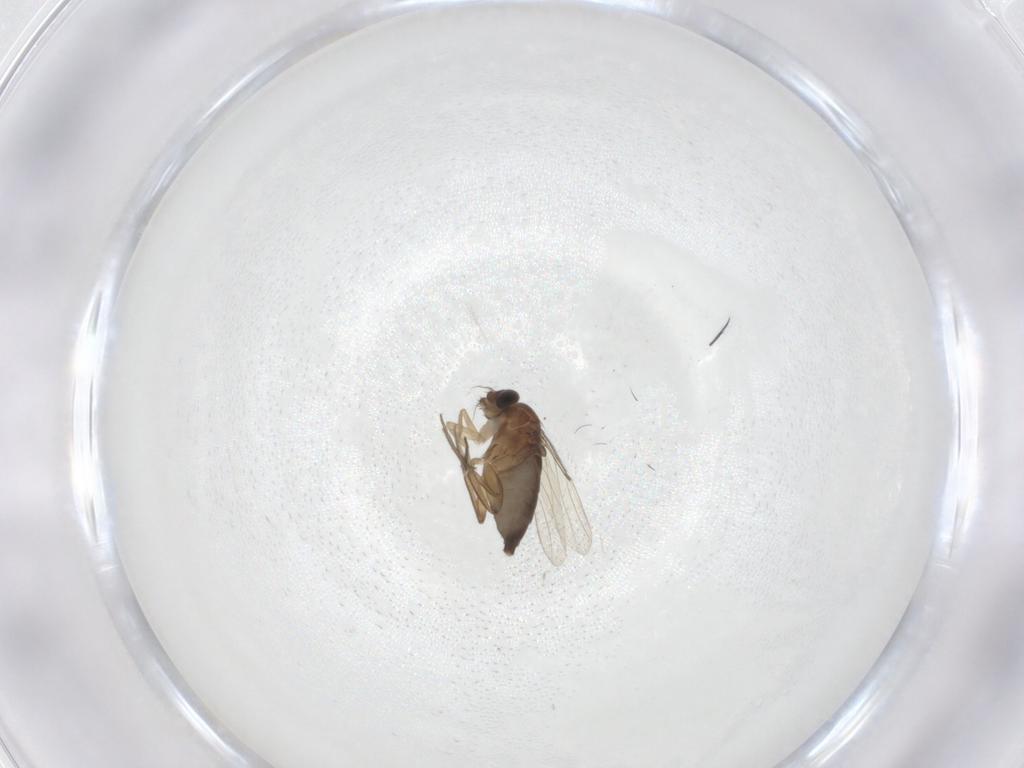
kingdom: Animalia
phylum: Arthropoda
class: Insecta
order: Diptera
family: Phoridae
